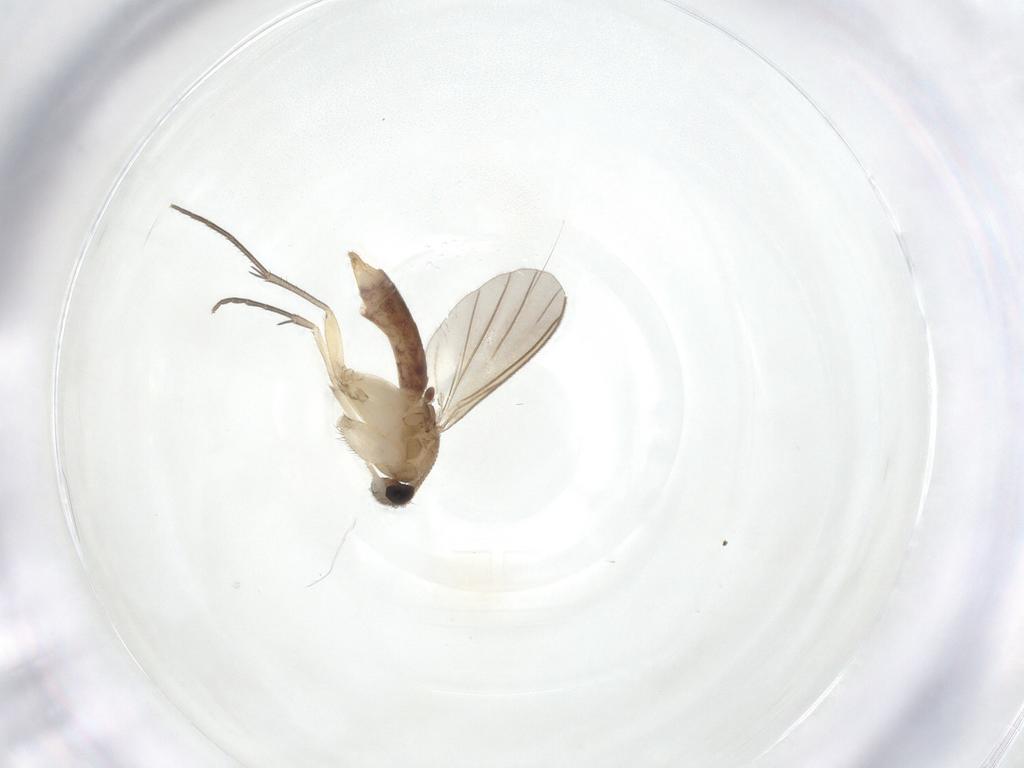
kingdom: Animalia
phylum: Arthropoda
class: Insecta
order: Diptera
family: Mycetophilidae
